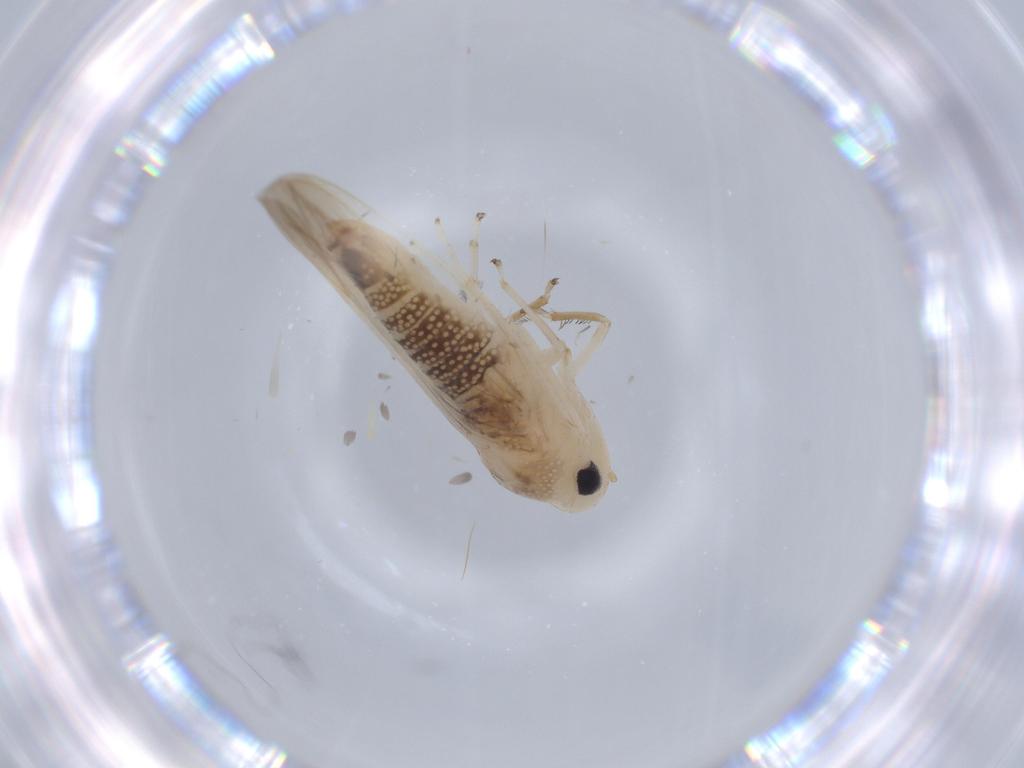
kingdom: Animalia
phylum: Arthropoda
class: Insecta
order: Hemiptera
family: Cicadellidae
